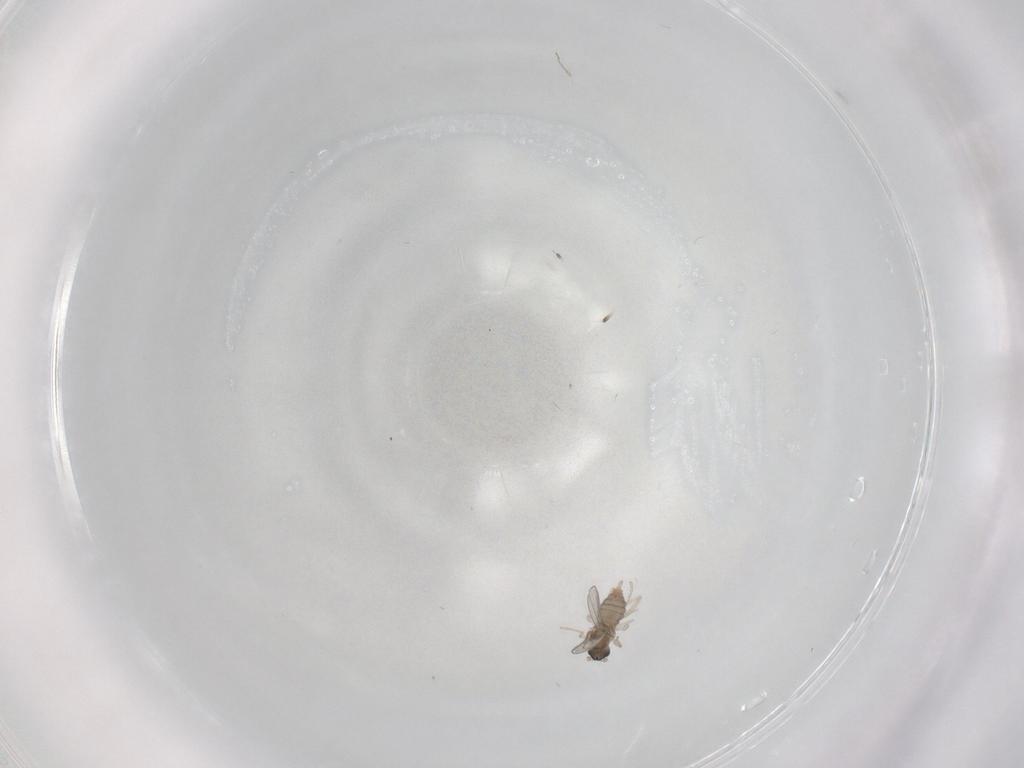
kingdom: Animalia
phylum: Arthropoda
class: Insecta
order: Diptera
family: Cecidomyiidae
